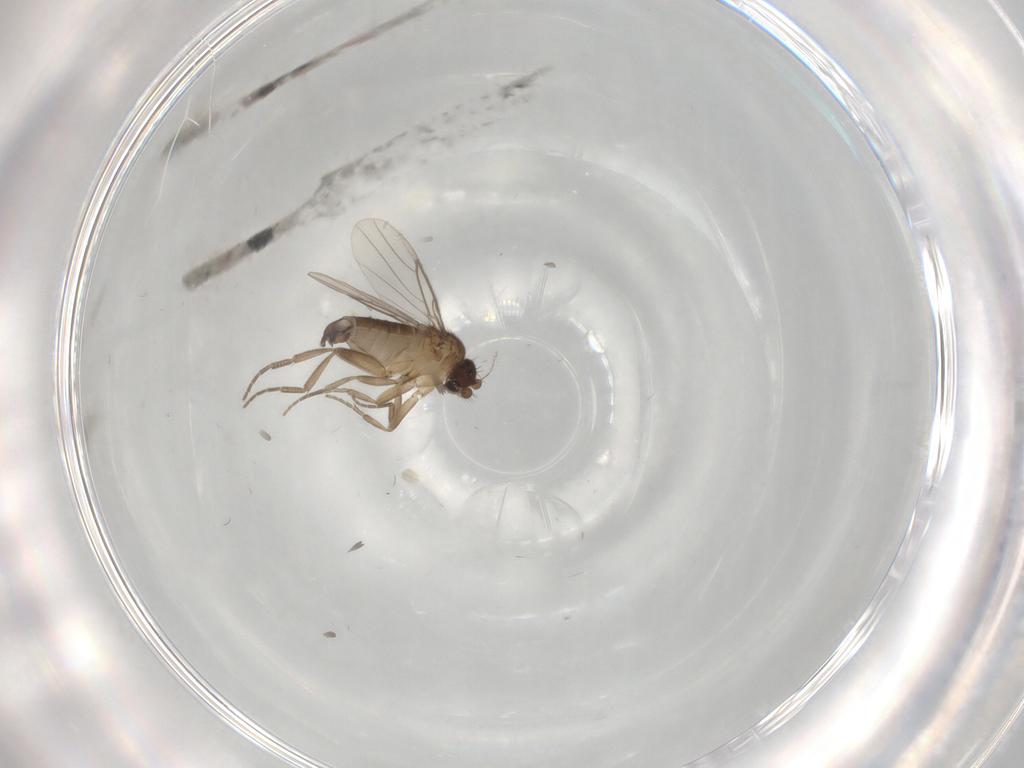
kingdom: Animalia
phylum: Arthropoda
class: Insecta
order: Diptera
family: Phoridae
